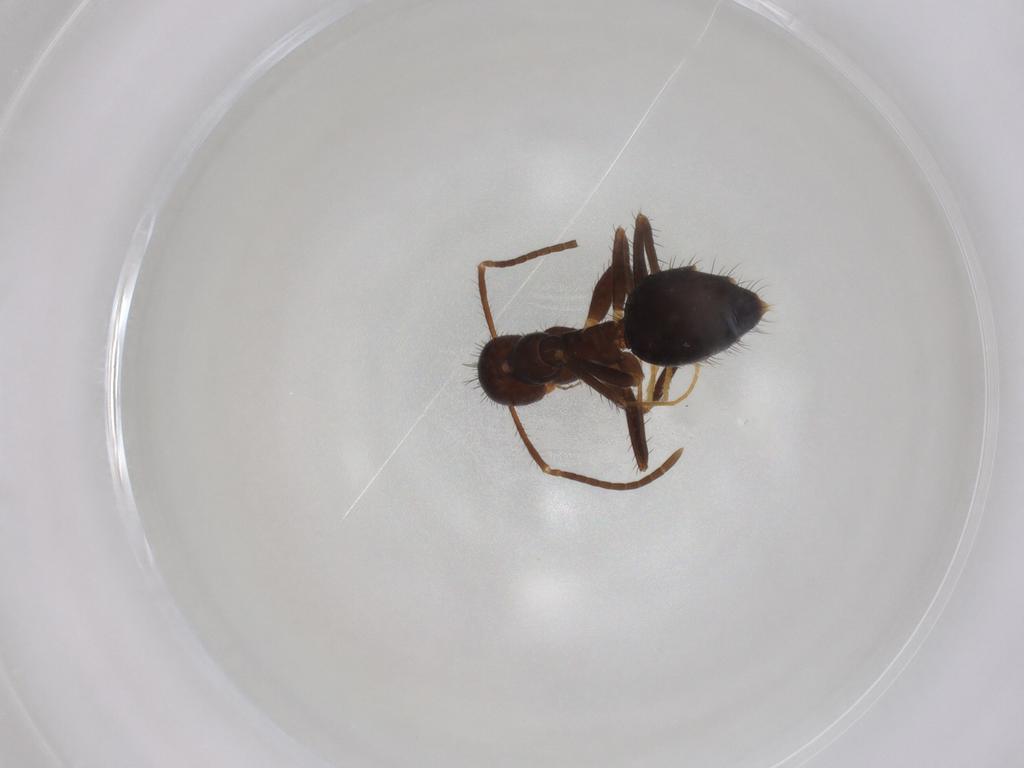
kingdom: Animalia
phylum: Arthropoda
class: Insecta
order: Hymenoptera
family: Formicidae
